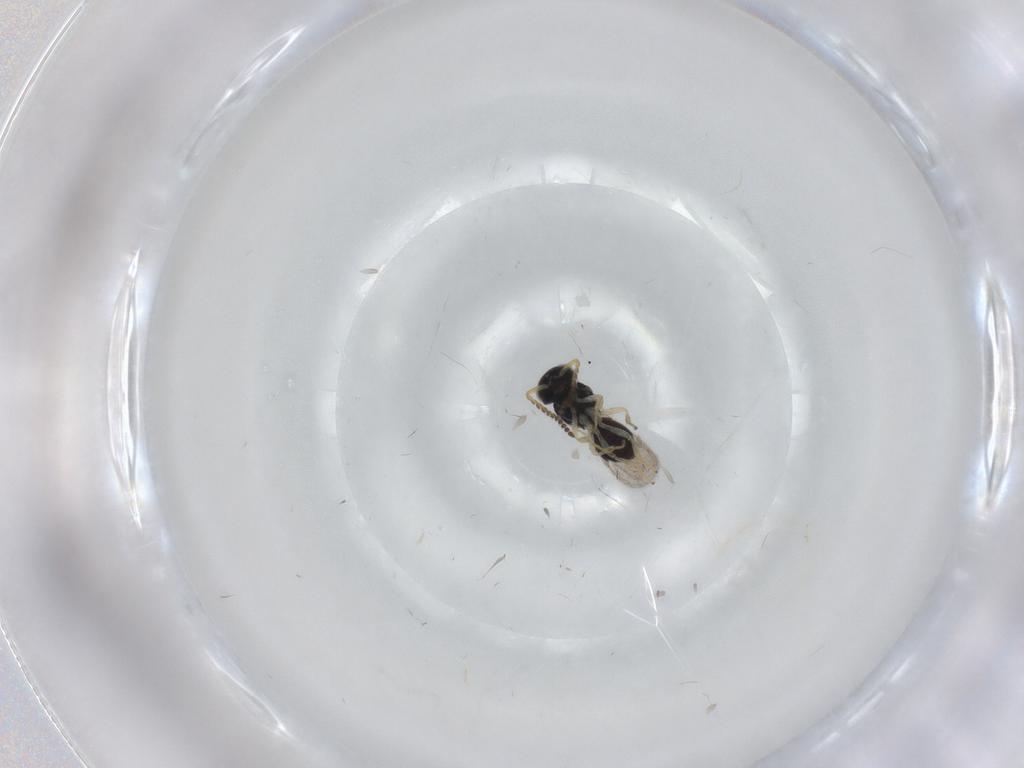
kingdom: Animalia
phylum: Arthropoda
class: Insecta
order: Hymenoptera
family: Scelionidae
